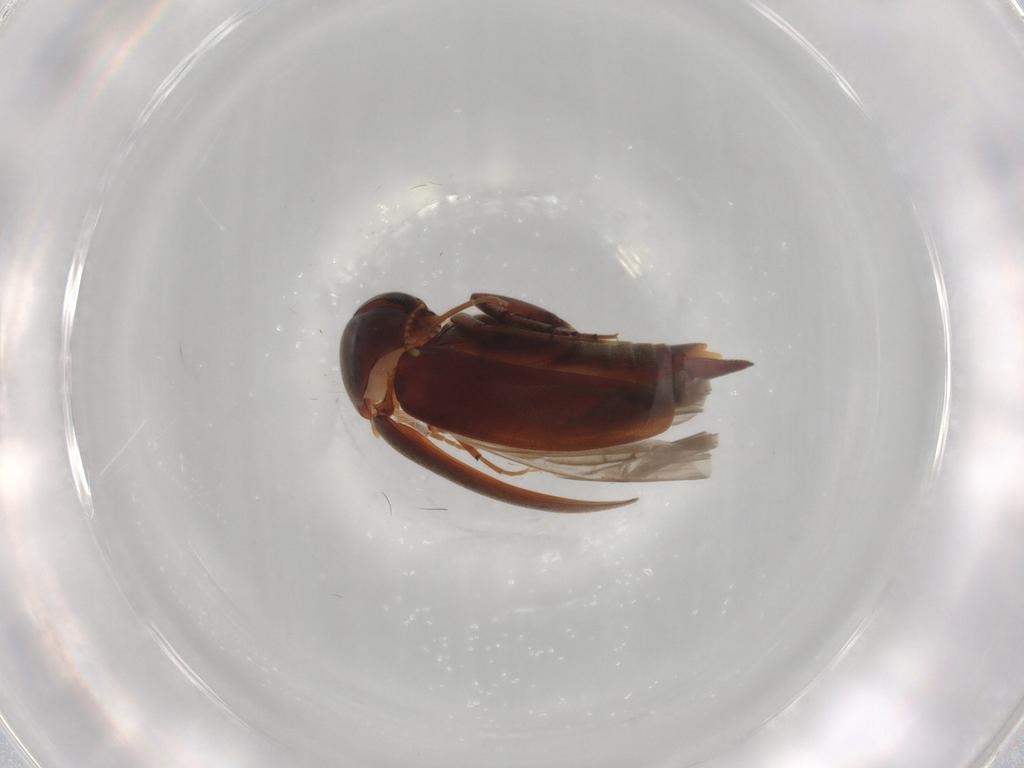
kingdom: Animalia
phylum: Arthropoda
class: Insecta
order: Coleoptera
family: Mordellidae
